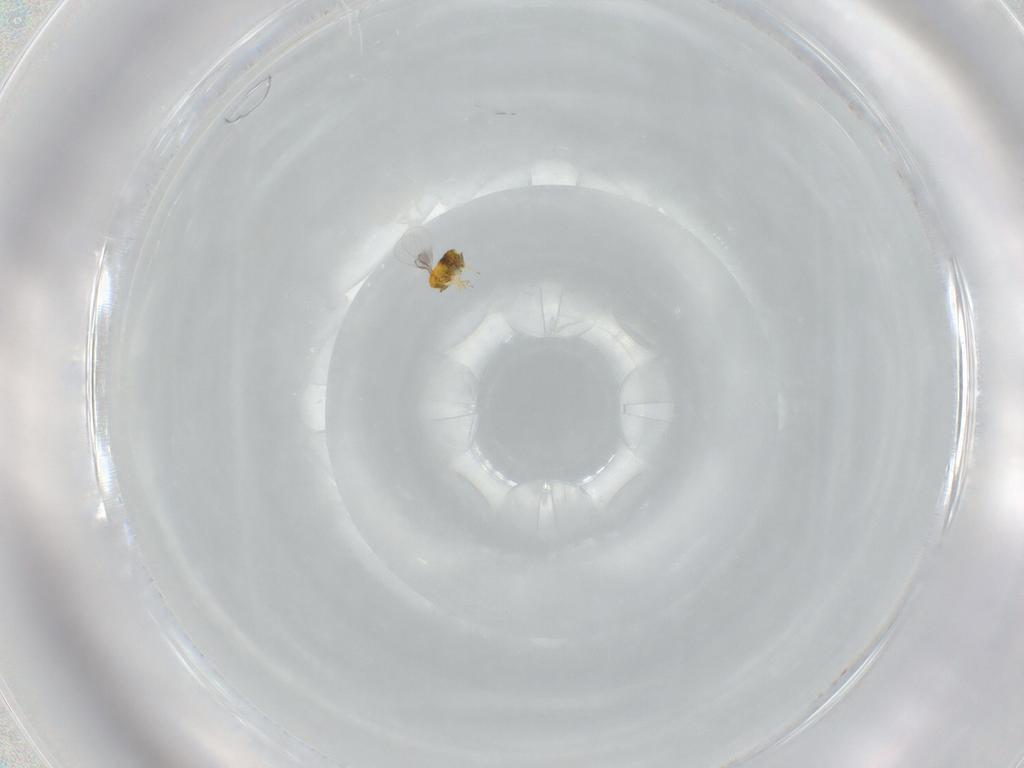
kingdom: Animalia
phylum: Arthropoda
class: Insecta
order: Hymenoptera
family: Trichogrammatidae
